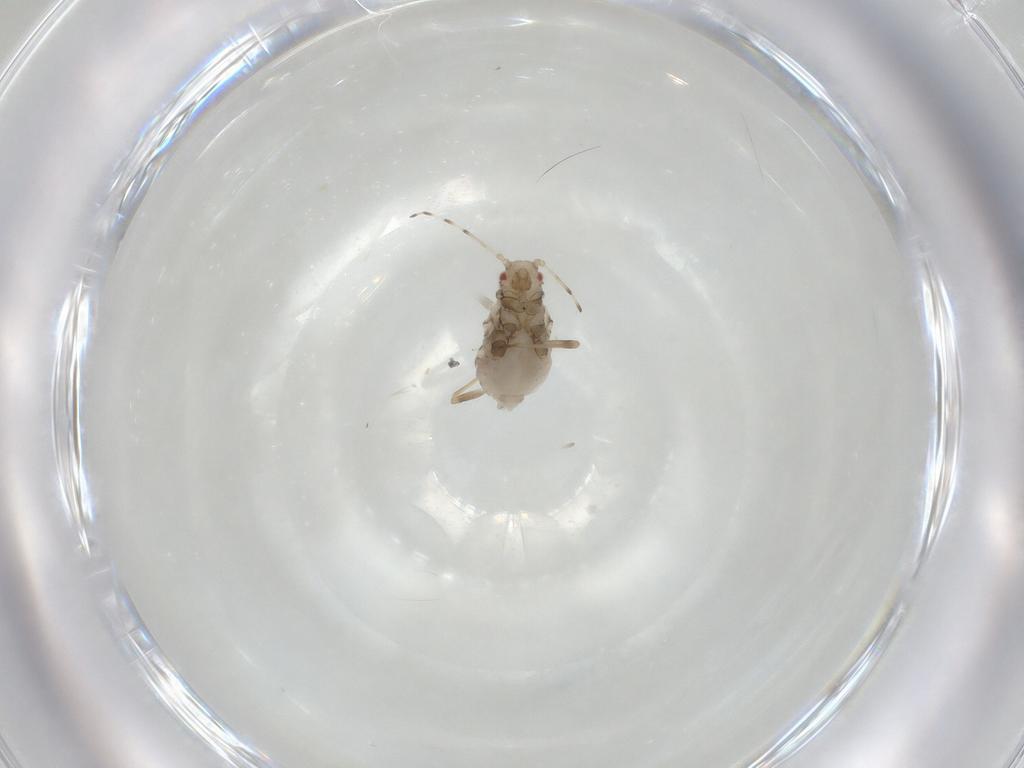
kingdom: Animalia
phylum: Arthropoda
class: Insecta
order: Hemiptera
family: Aphididae
